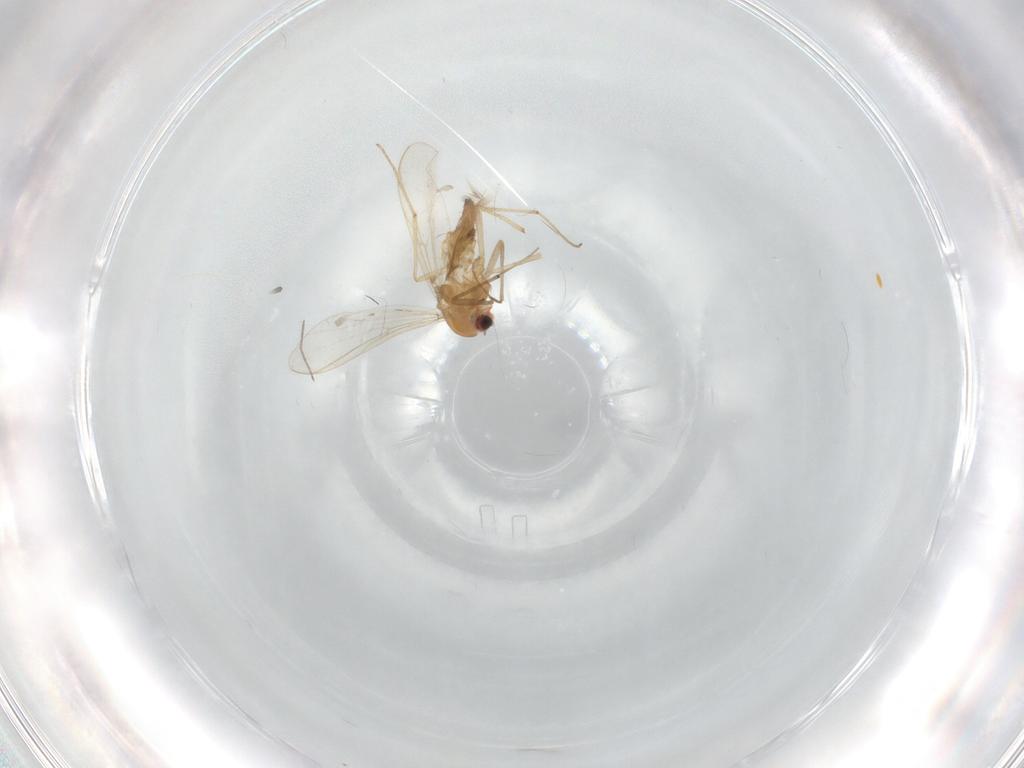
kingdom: Animalia
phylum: Arthropoda
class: Insecta
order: Diptera
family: Chironomidae
